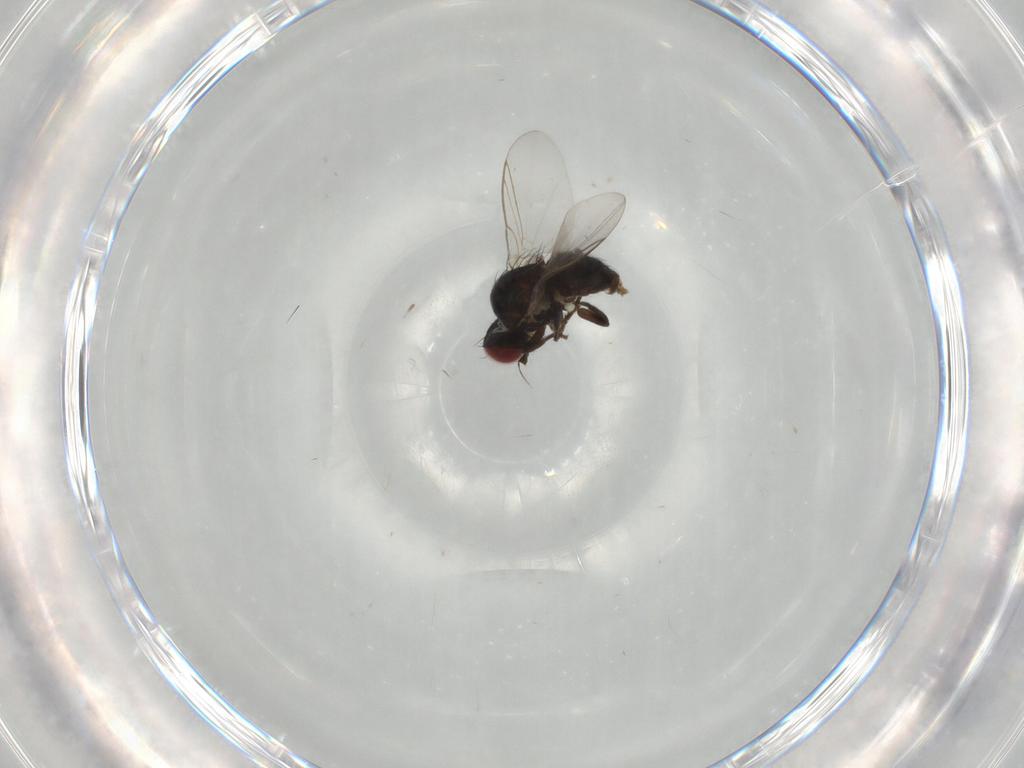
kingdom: Animalia
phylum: Arthropoda
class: Insecta
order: Diptera
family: Agromyzidae
